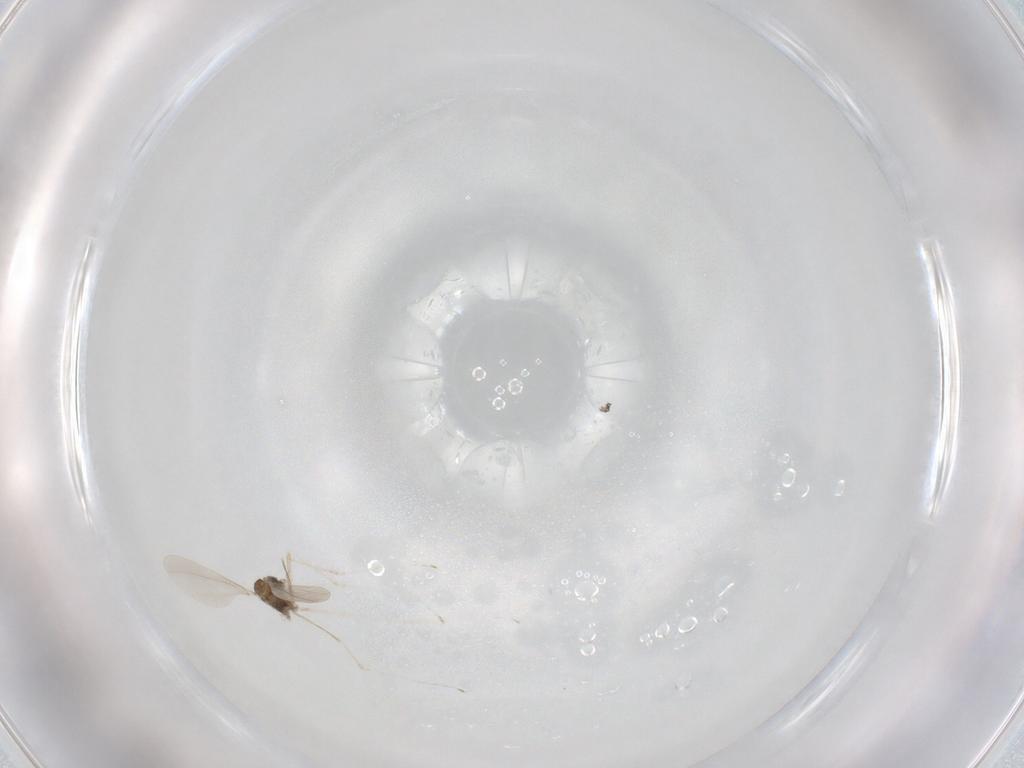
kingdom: Animalia
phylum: Arthropoda
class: Insecta
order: Diptera
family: Cecidomyiidae
